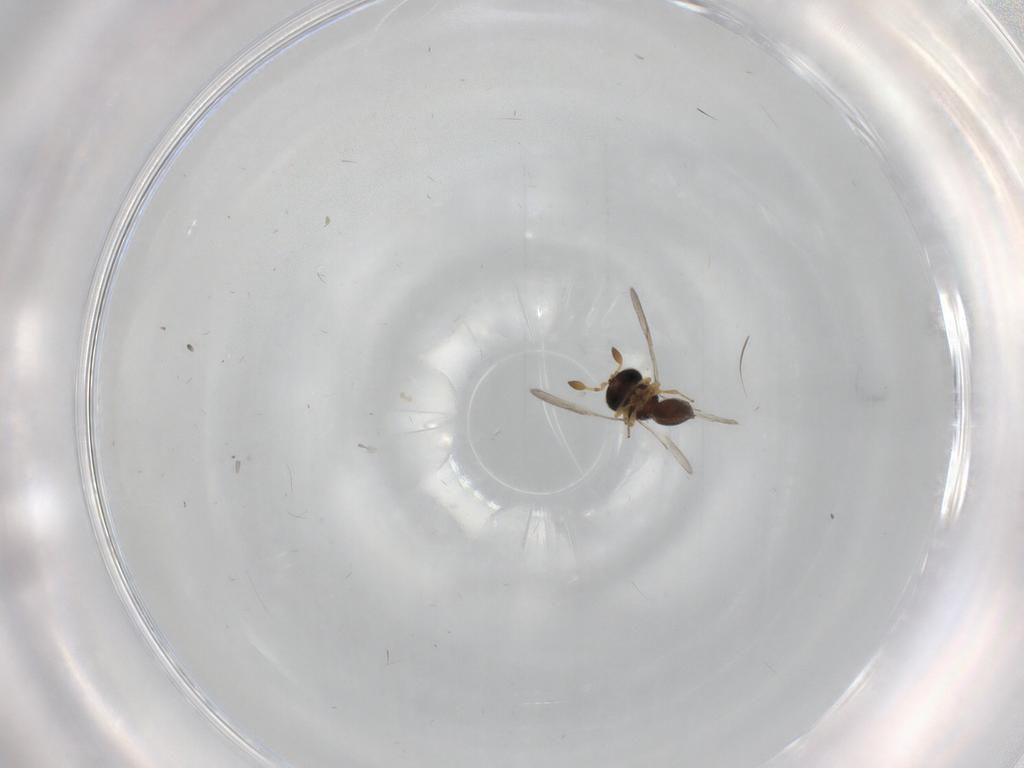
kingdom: Animalia
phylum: Arthropoda
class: Insecta
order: Hymenoptera
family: Scelionidae
